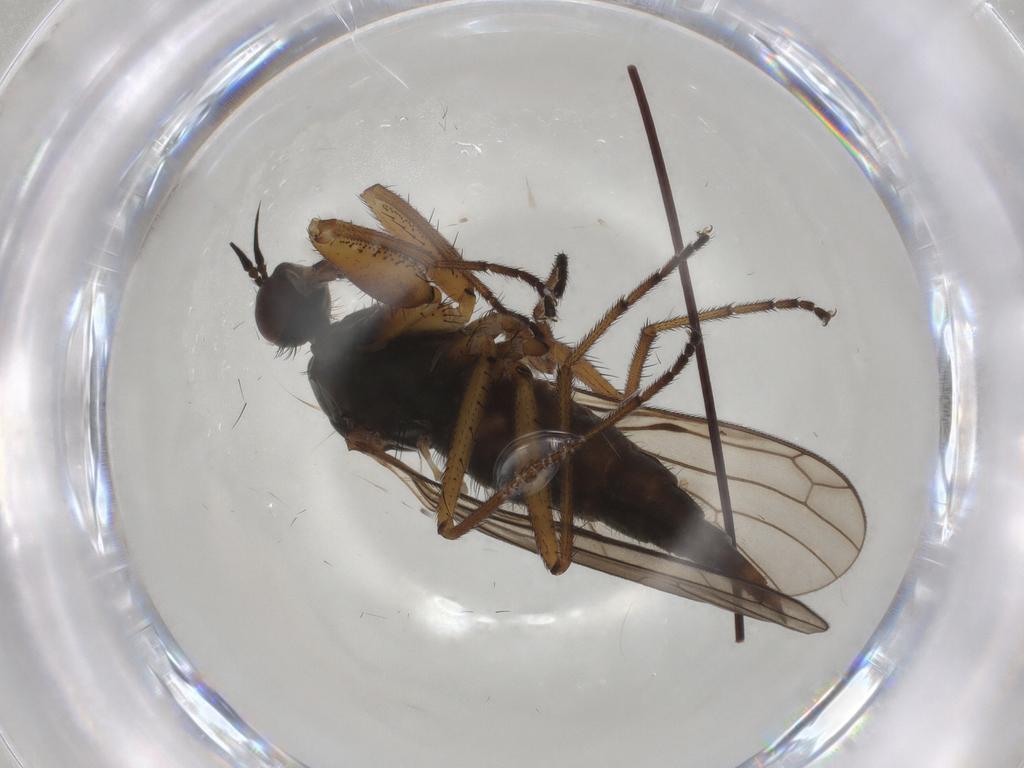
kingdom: Animalia
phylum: Arthropoda
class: Insecta
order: Diptera
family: Empididae
